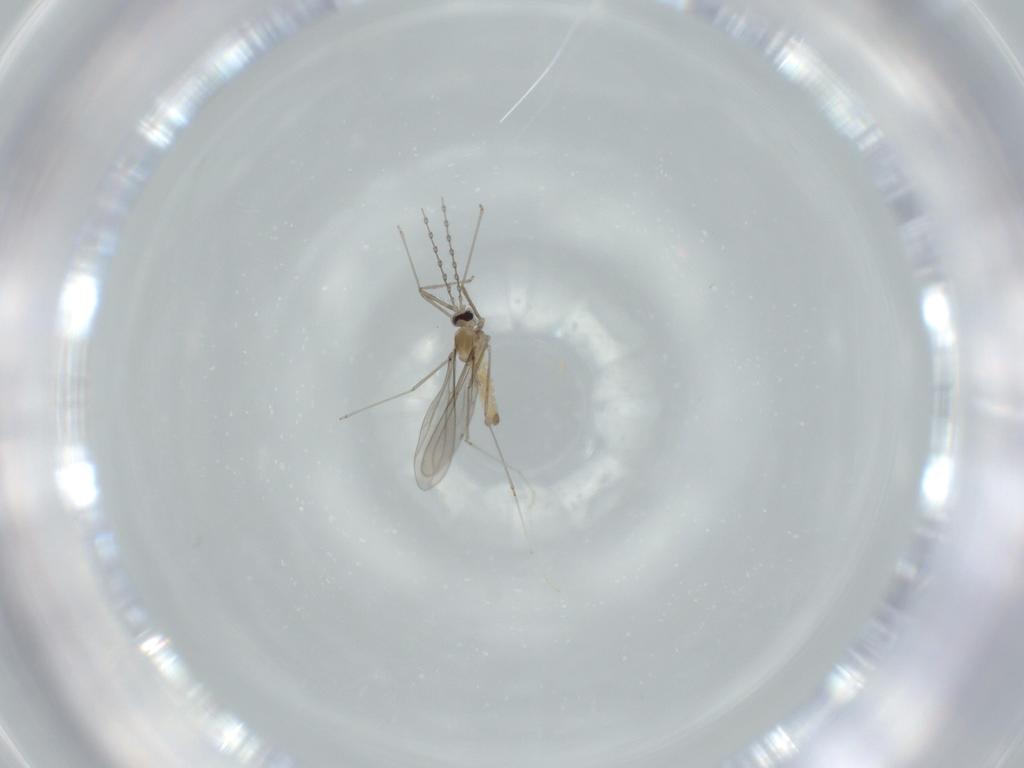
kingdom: Animalia
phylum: Arthropoda
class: Insecta
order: Diptera
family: Cecidomyiidae
